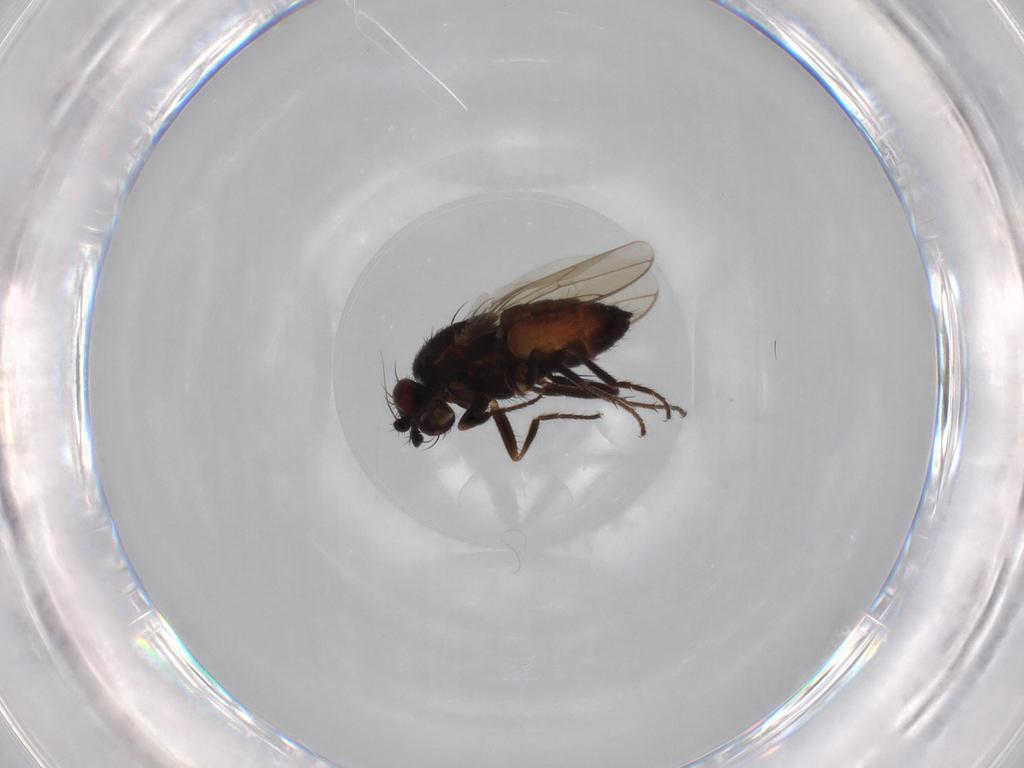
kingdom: Animalia
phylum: Arthropoda
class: Insecta
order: Diptera
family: Sphaeroceridae
